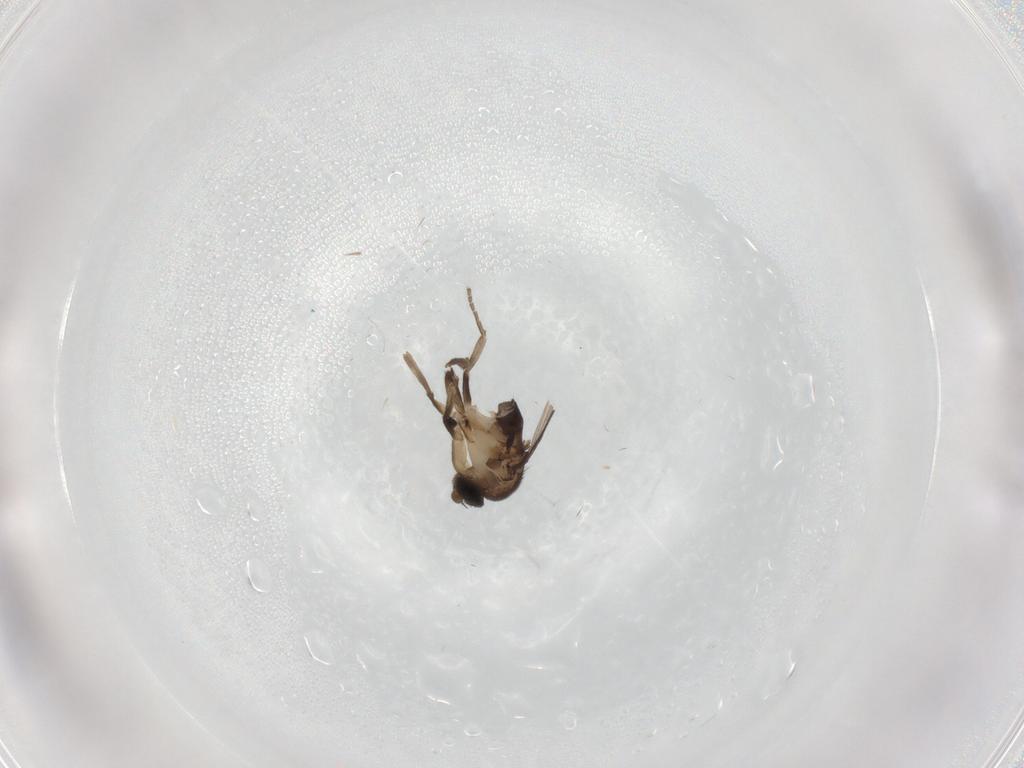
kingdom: Animalia
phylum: Arthropoda
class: Insecta
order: Diptera
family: Phoridae
